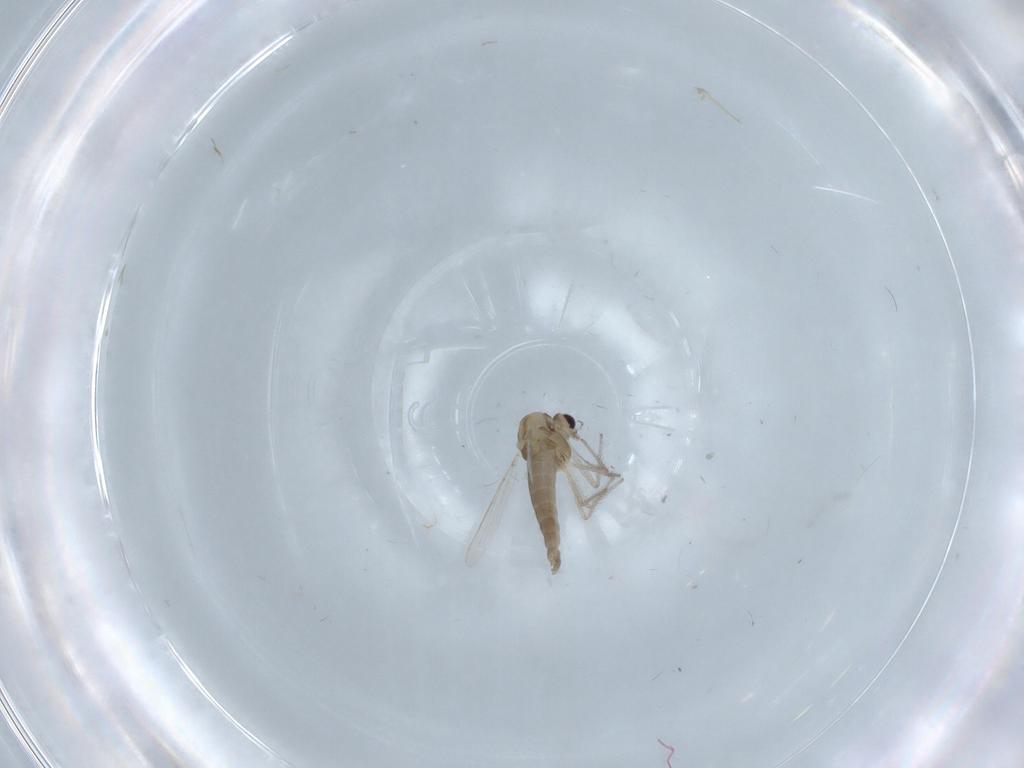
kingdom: Animalia
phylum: Arthropoda
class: Insecta
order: Diptera
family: Chironomidae
